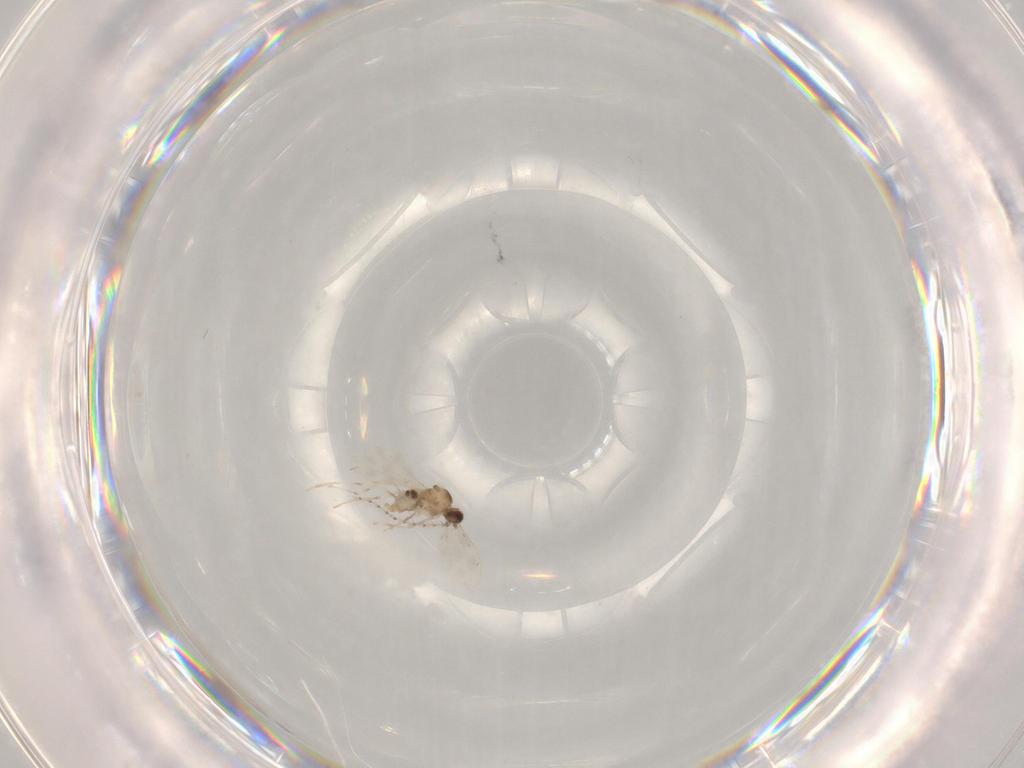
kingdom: Animalia
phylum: Arthropoda
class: Insecta
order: Diptera
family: Cecidomyiidae
